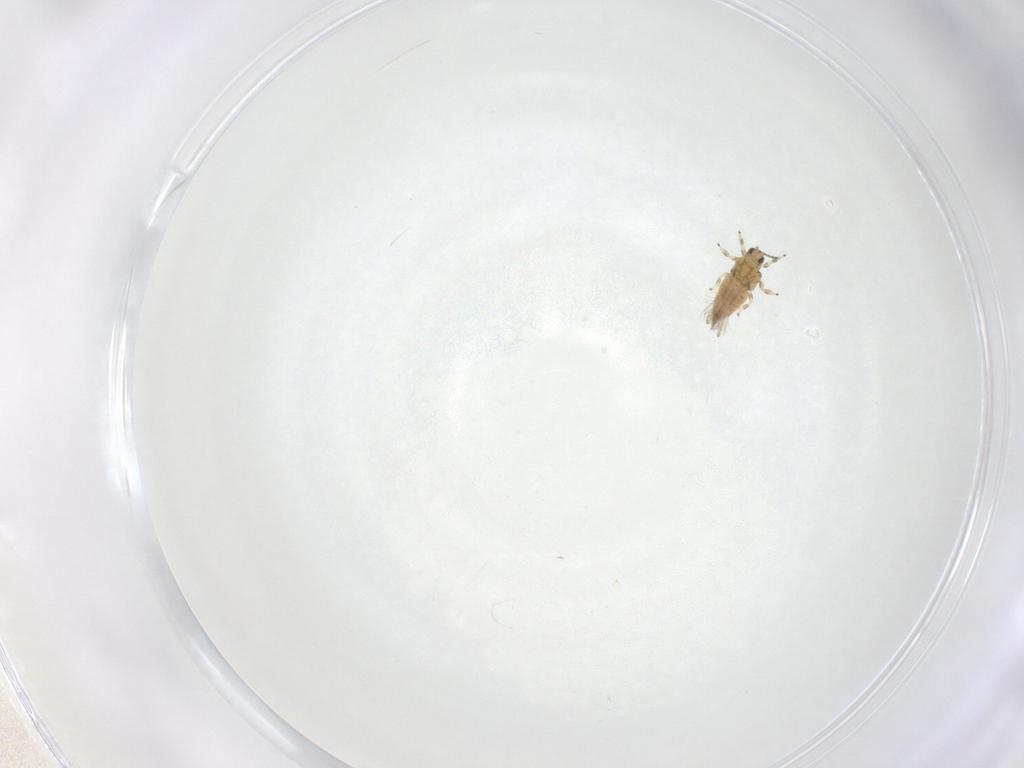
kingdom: Animalia
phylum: Arthropoda
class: Insecta
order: Thysanoptera
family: Thripidae
